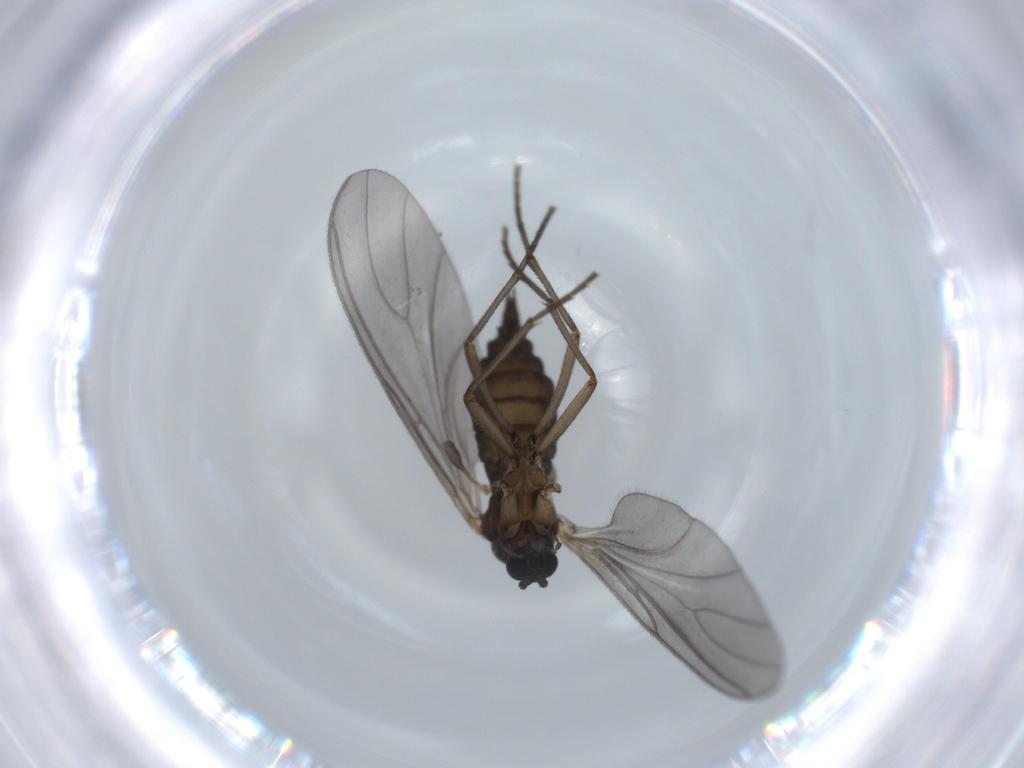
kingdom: Animalia
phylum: Arthropoda
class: Insecta
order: Diptera
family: Sciaridae
